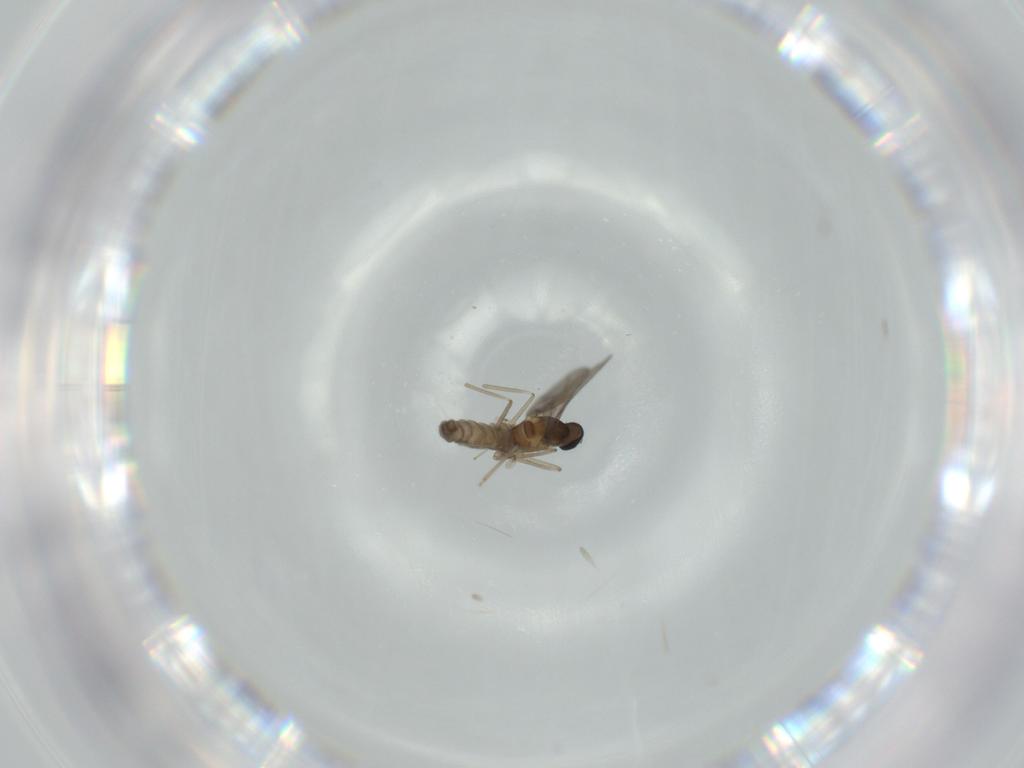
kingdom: Animalia
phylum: Arthropoda
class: Insecta
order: Diptera
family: Cecidomyiidae
